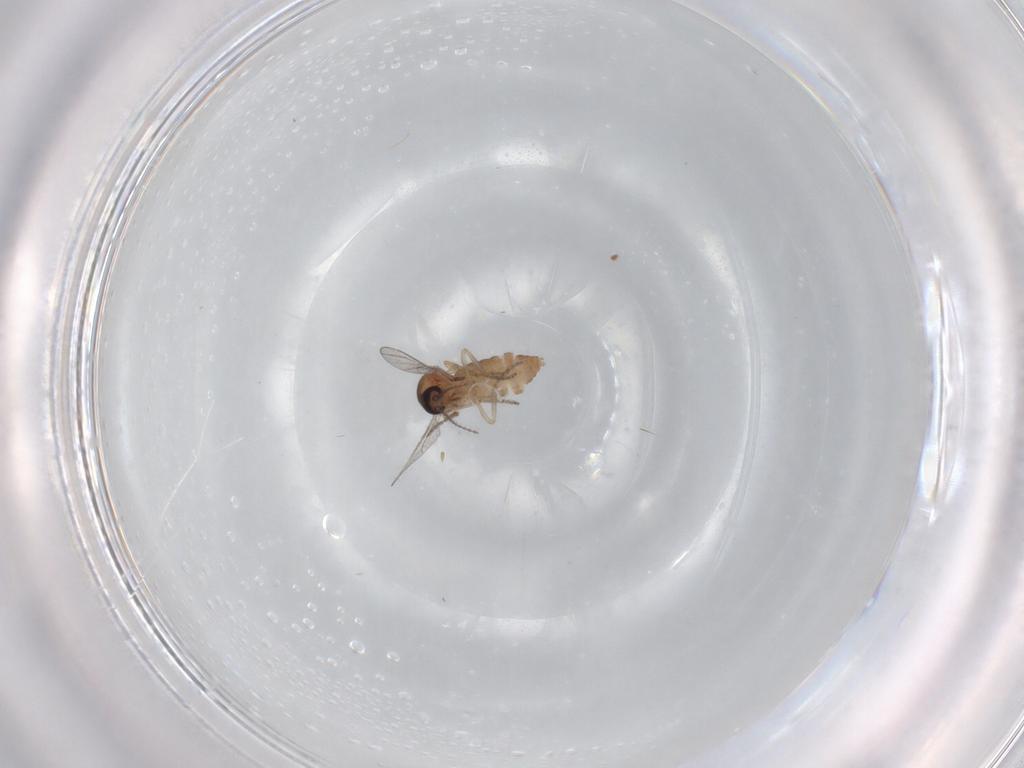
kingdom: Animalia
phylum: Arthropoda
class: Insecta
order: Diptera
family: Ceratopogonidae
